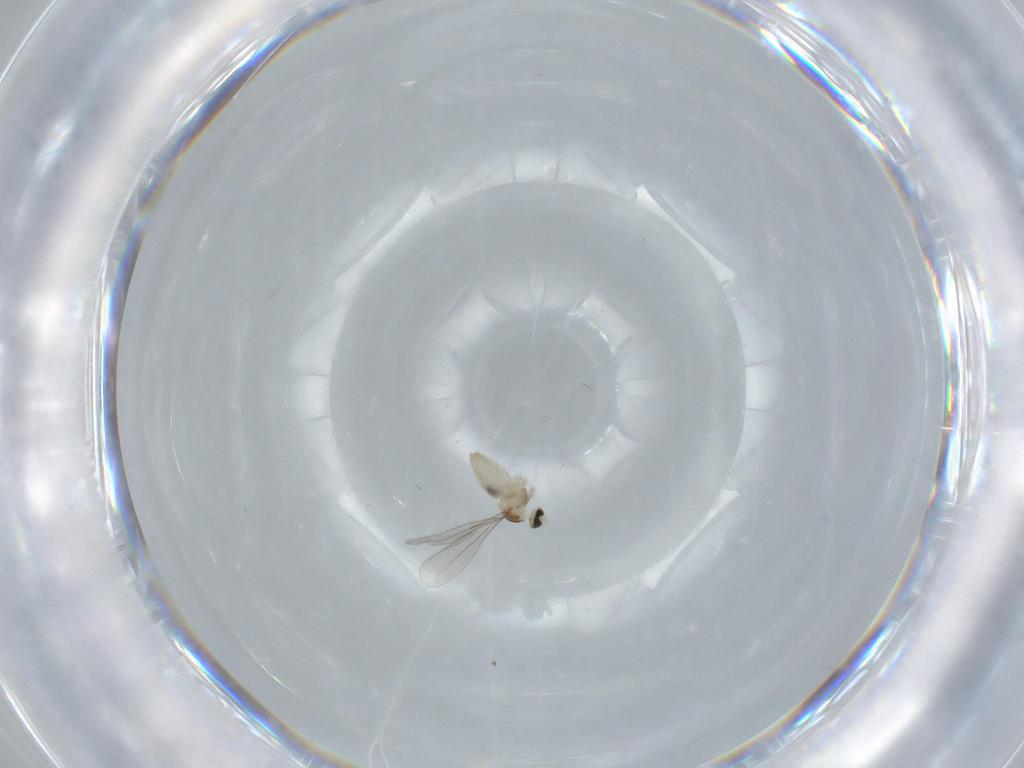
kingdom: Animalia
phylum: Arthropoda
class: Insecta
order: Diptera
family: Cecidomyiidae
